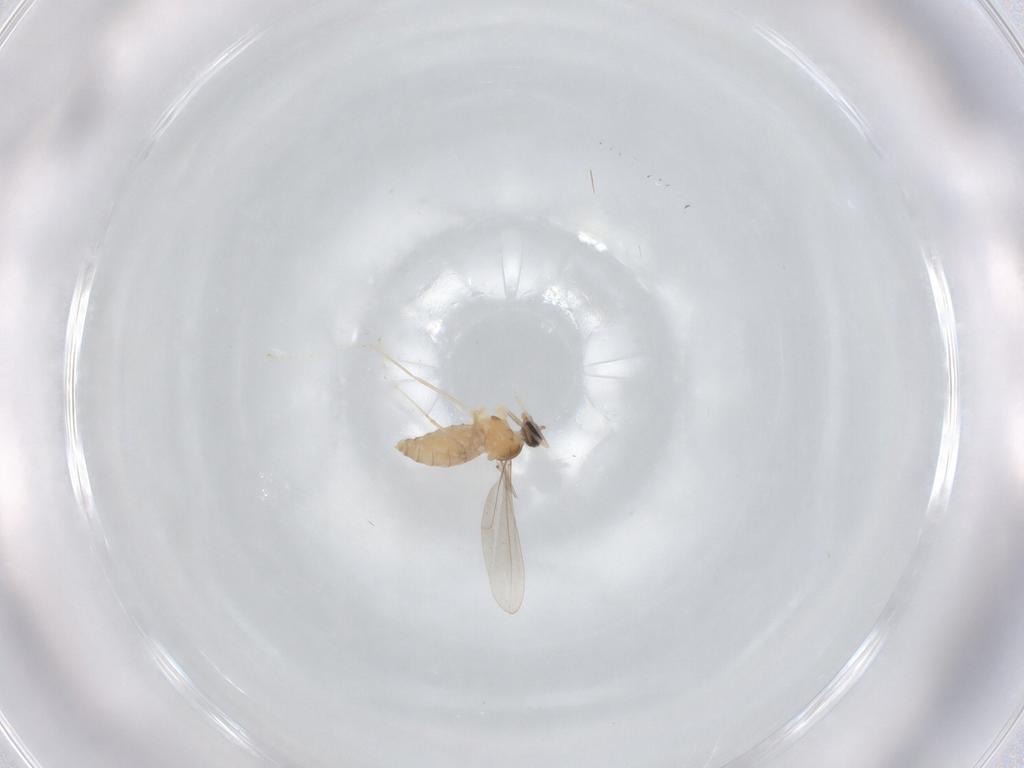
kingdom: Animalia
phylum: Arthropoda
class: Insecta
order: Diptera
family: Cecidomyiidae
